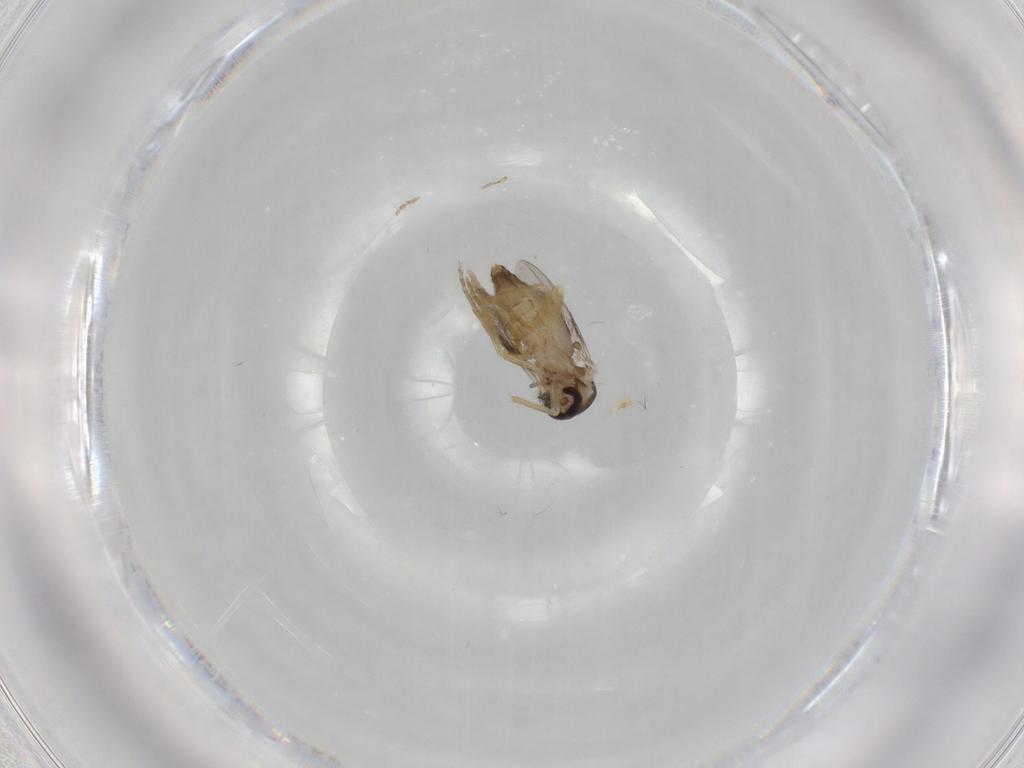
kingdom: Animalia
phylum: Arthropoda
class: Insecta
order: Diptera
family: Ceratopogonidae
